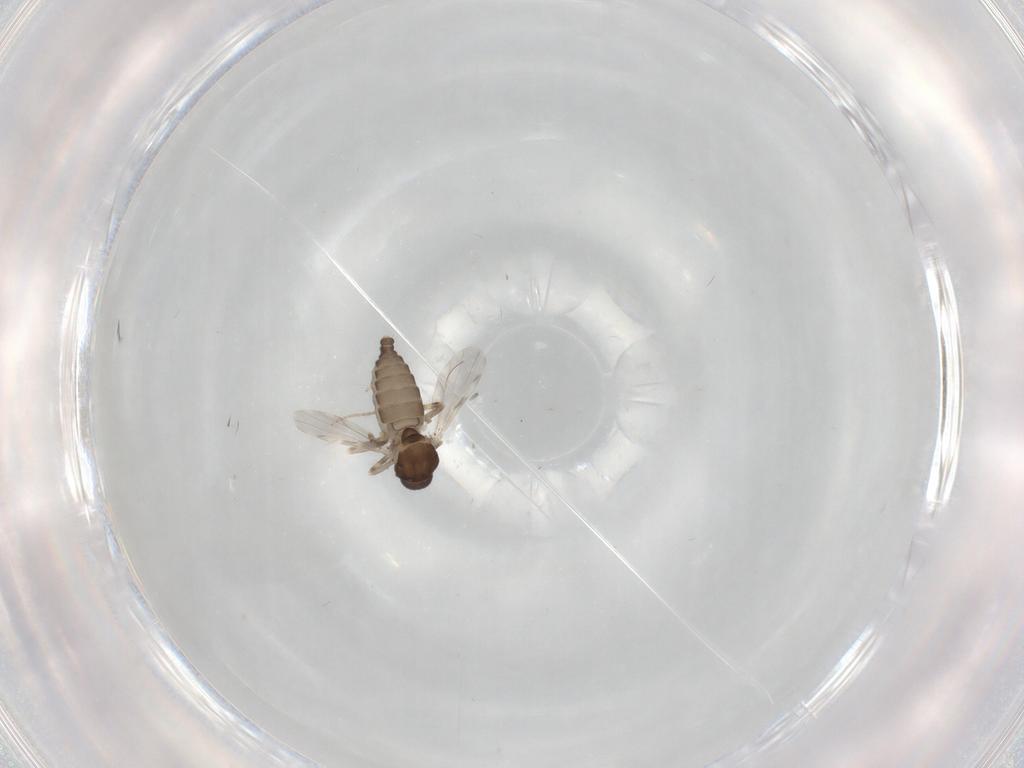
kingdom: Animalia
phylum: Arthropoda
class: Insecta
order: Diptera
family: Ceratopogonidae
